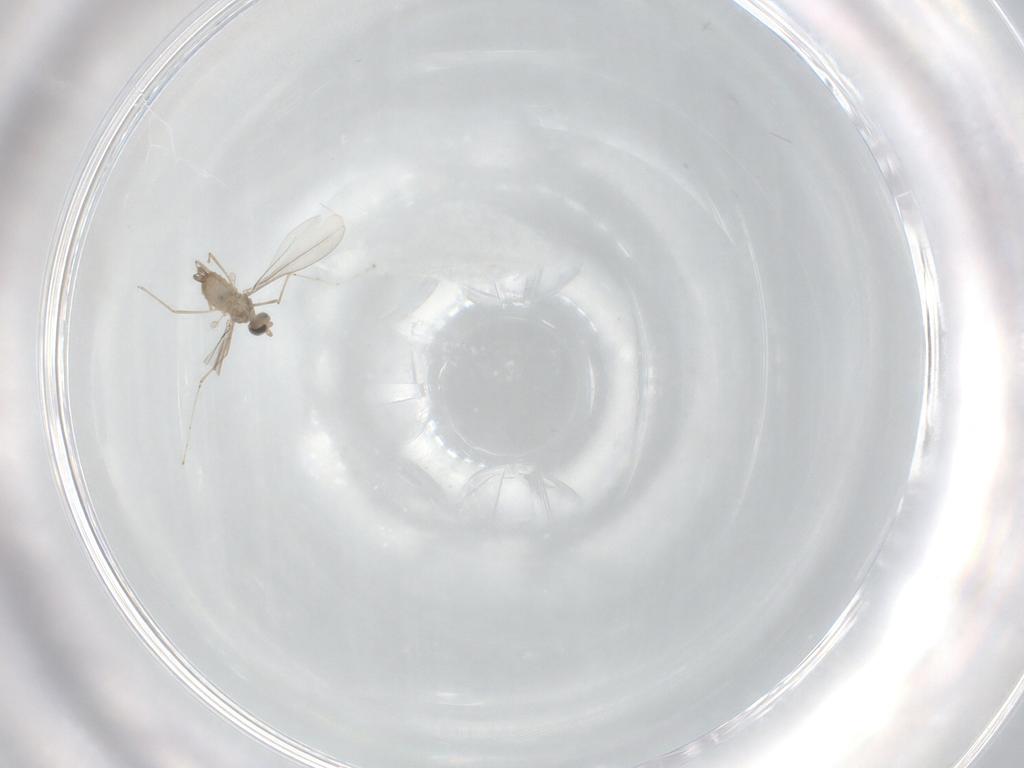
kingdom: Animalia
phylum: Arthropoda
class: Insecta
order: Diptera
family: Cecidomyiidae
